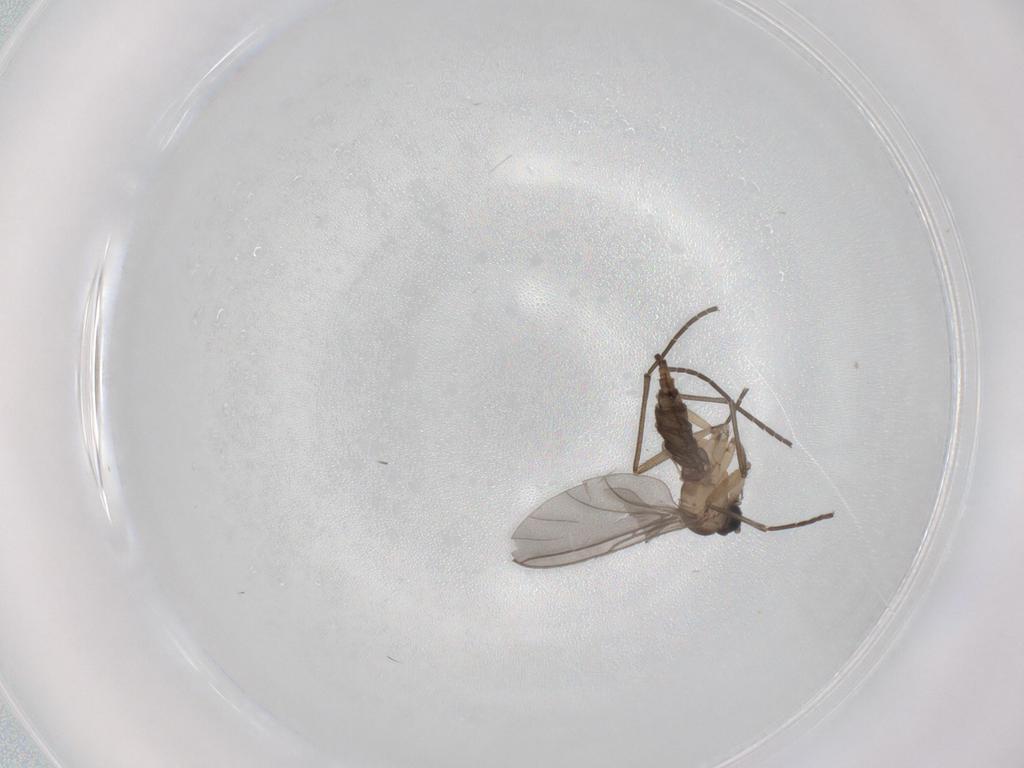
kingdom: Animalia
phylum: Arthropoda
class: Insecta
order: Diptera
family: Sciaridae
